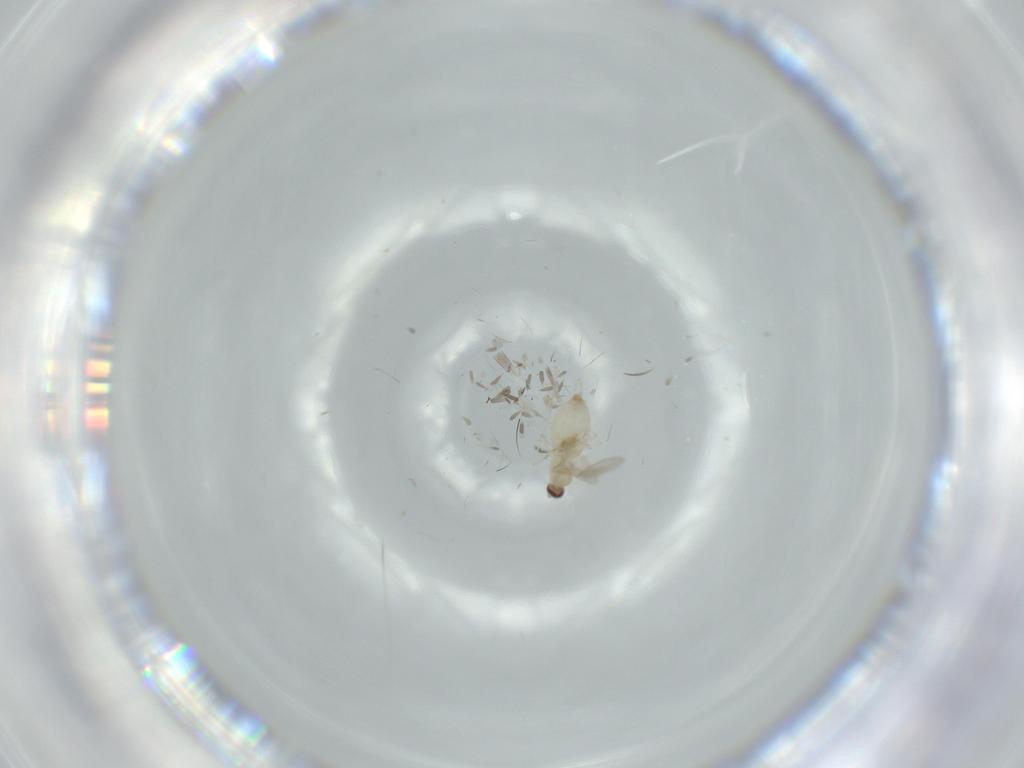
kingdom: Animalia
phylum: Arthropoda
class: Insecta
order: Diptera
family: Cecidomyiidae
